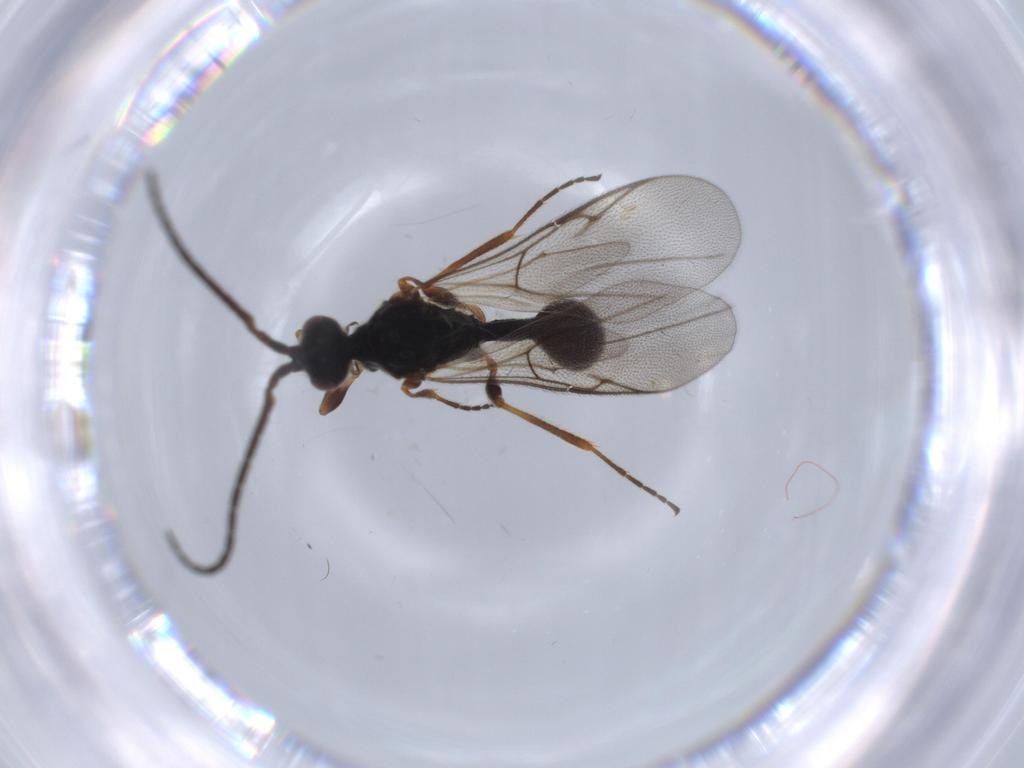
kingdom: Animalia
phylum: Arthropoda
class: Insecta
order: Hymenoptera
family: Diapriidae
